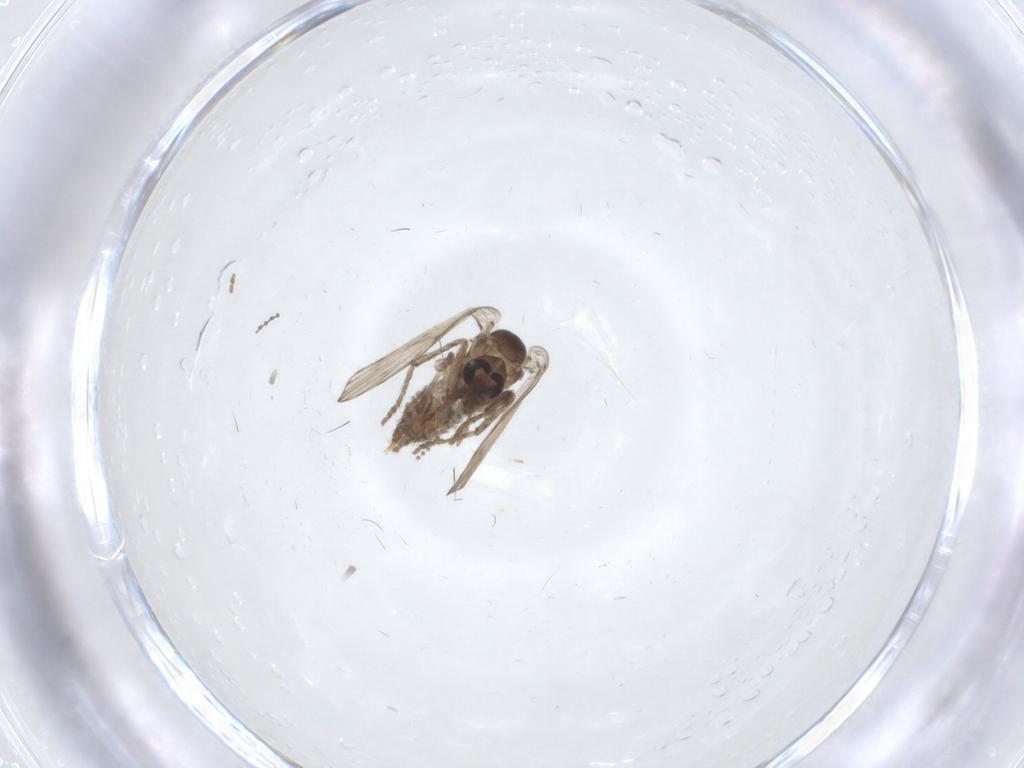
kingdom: Animalia
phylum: Arthropoda
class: Insecta
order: Diptera
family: Psychodidae
